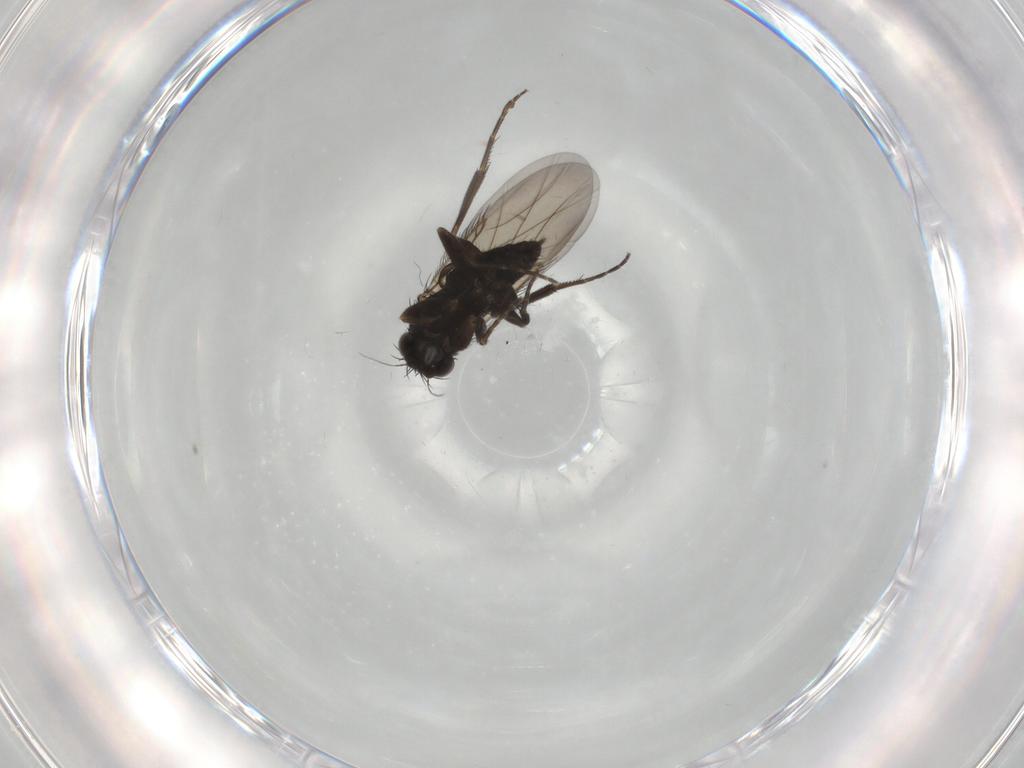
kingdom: Animalia
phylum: Arthropoda
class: Insecta
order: Diptera
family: Phoridae
